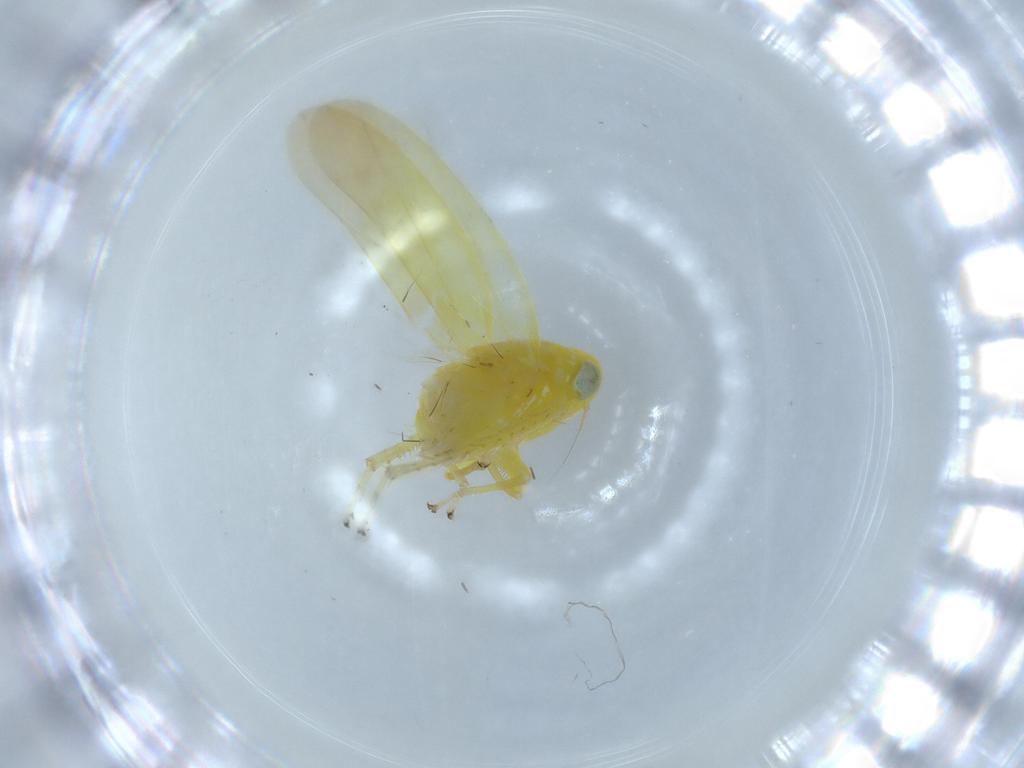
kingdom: Animalia
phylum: Arthropoda
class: Insecta
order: Hemiptera
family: Cicadellidae
